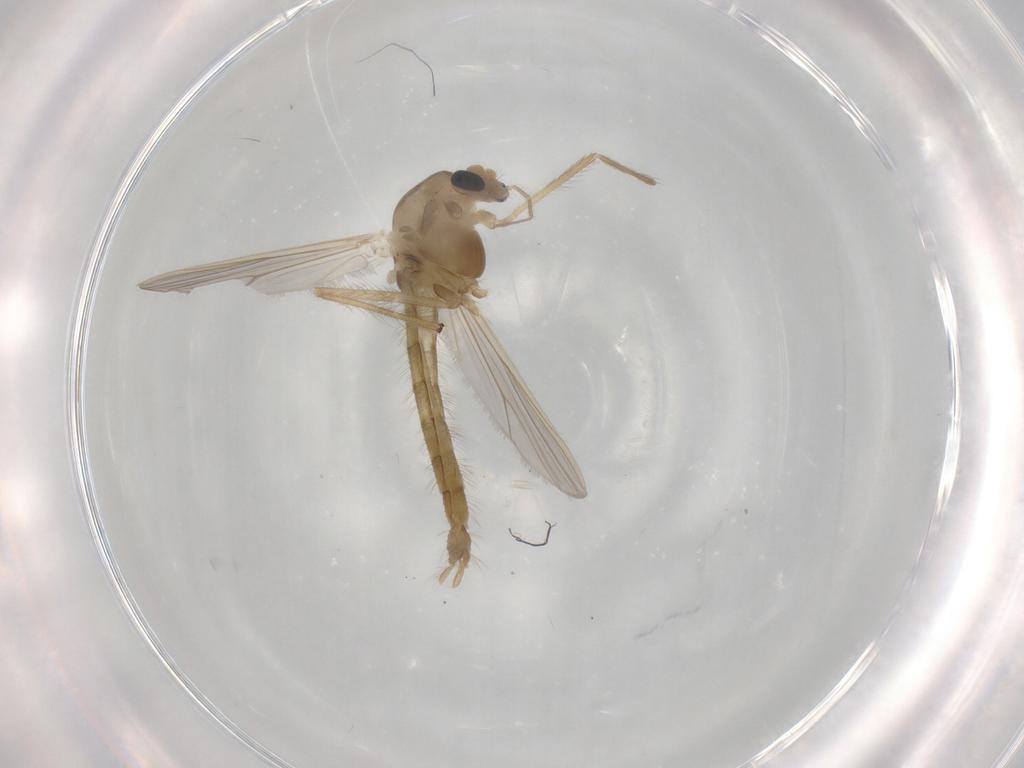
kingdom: Animalia
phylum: Arthropoda
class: Insecta
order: Diptera
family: Chironomidae
